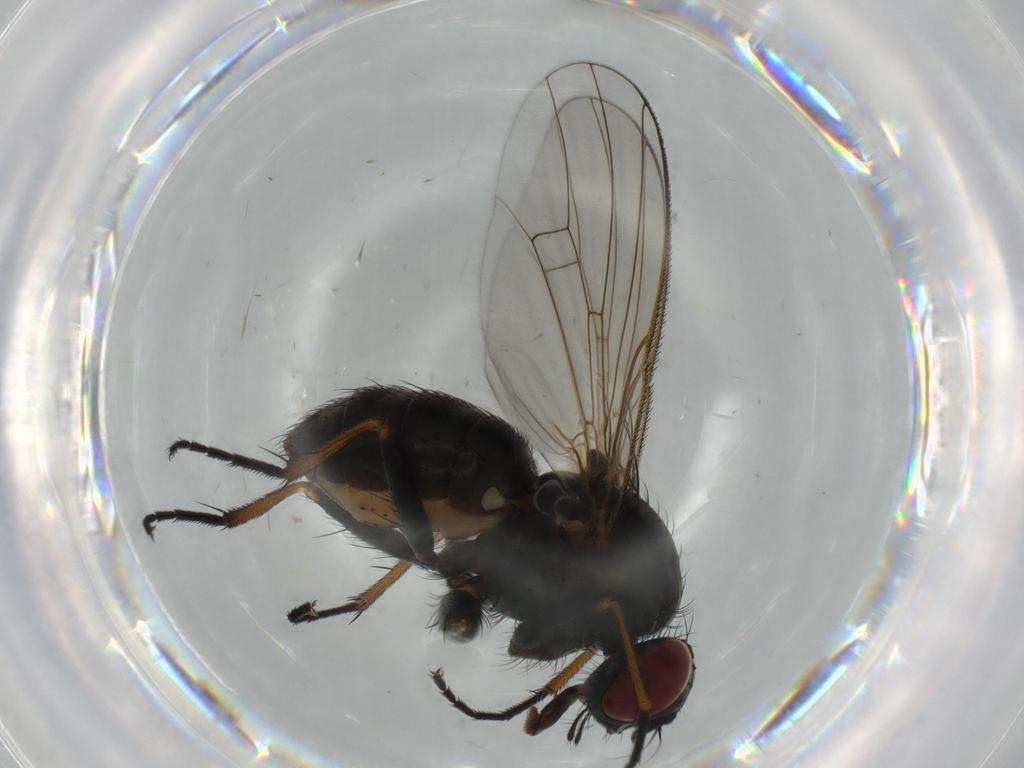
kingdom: Animalia
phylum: Arthropoda
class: Insecta
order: Diptera
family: Muscidae
